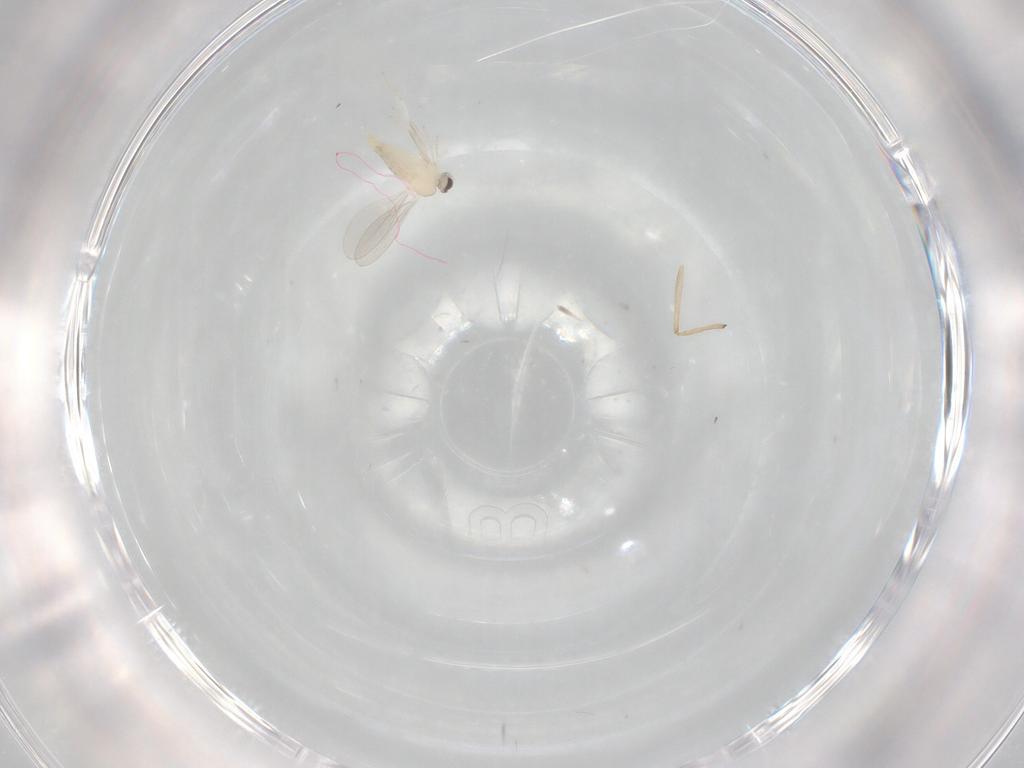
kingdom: Animalia
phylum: Arthropoda
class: Insecta
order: Diptera
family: Cecidomyiidae
